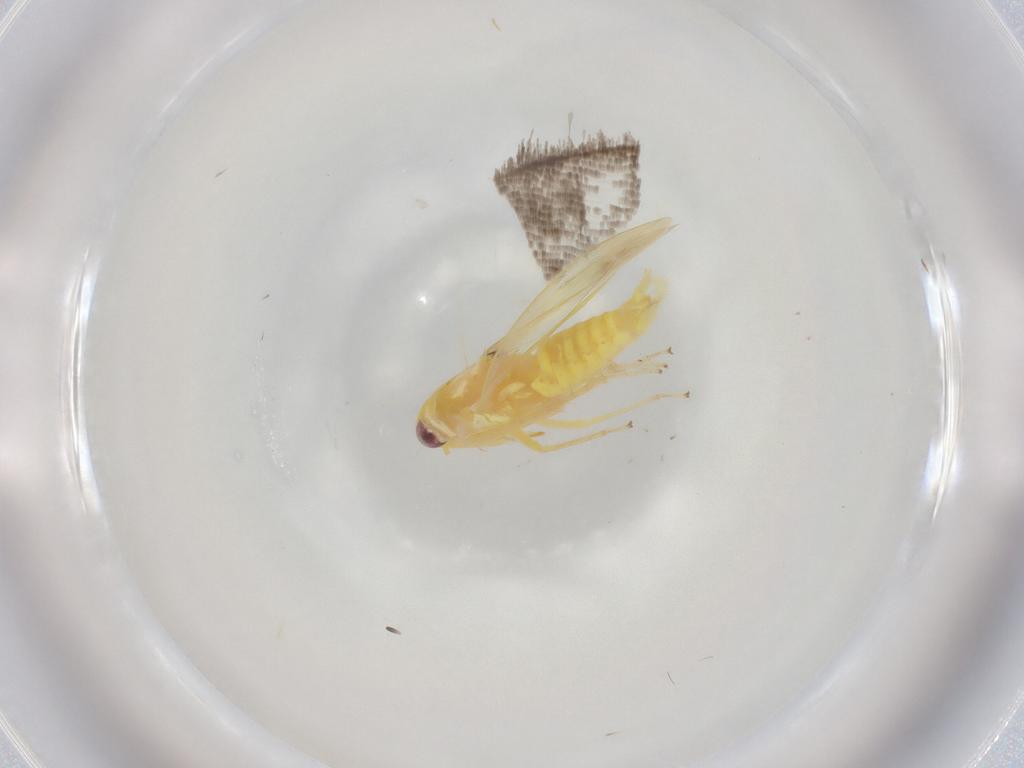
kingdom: Animalia
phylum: Arthropoda
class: Insecta
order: Hemiptera
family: Cicadellidae
